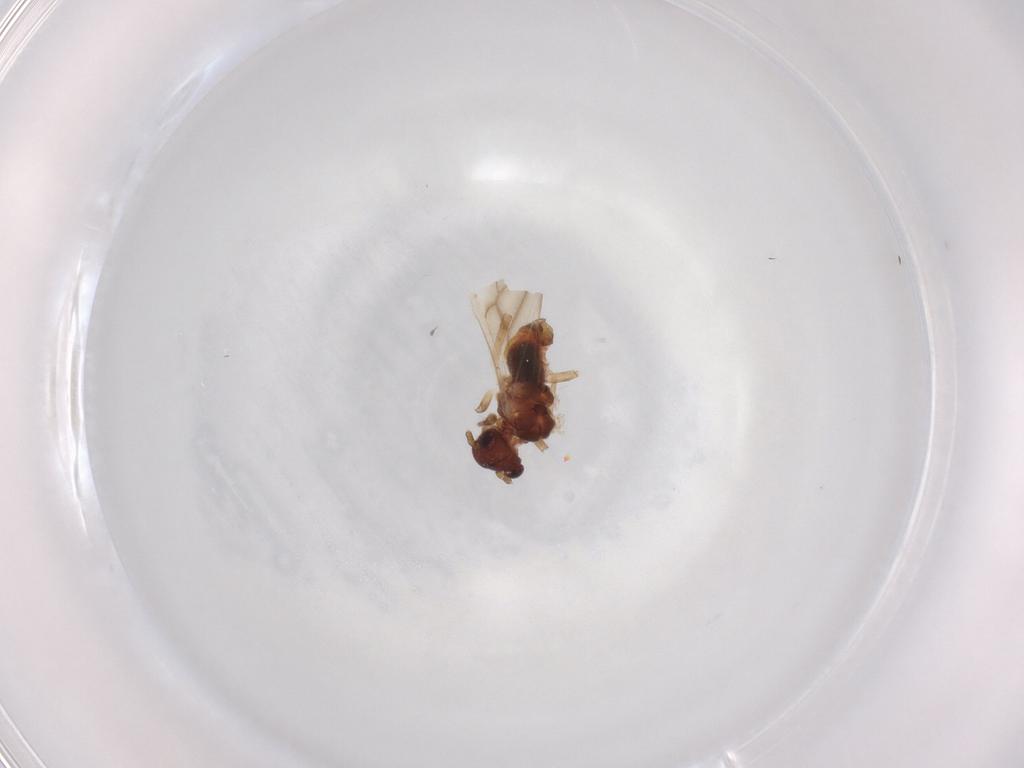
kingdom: Animalia
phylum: Arthropoda
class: Insecta
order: Psocodea
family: Caeciliusidae
